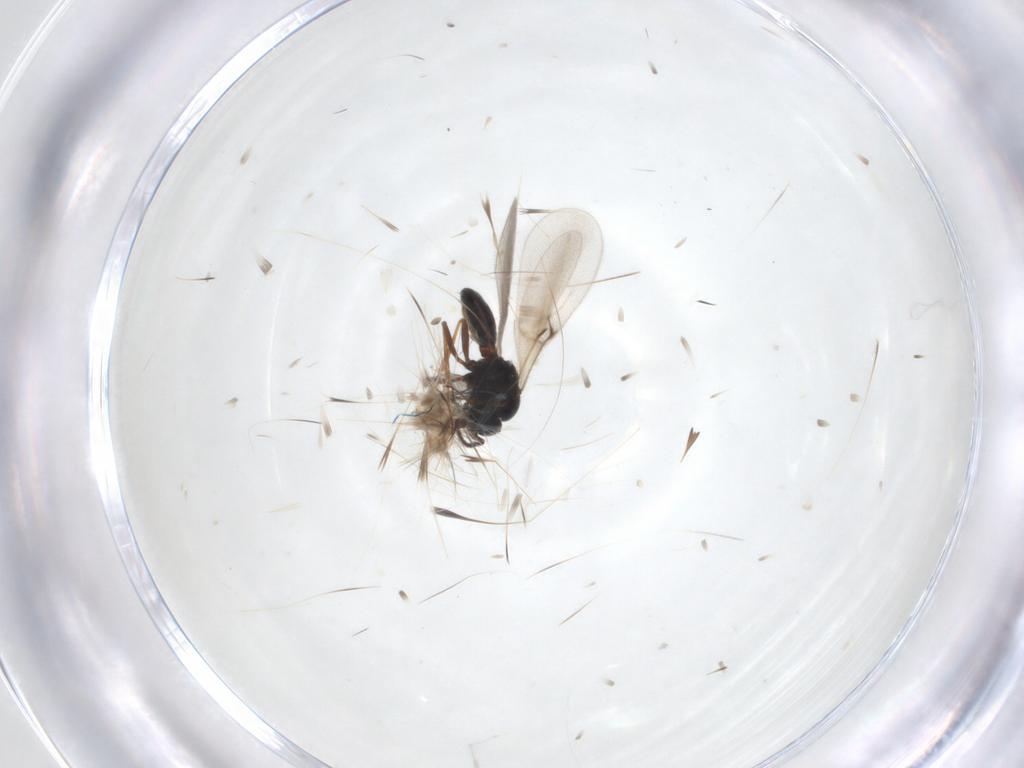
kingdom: Animalia
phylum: Arthropoda
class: Insecta
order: Hymenoptera
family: Scelionidae
